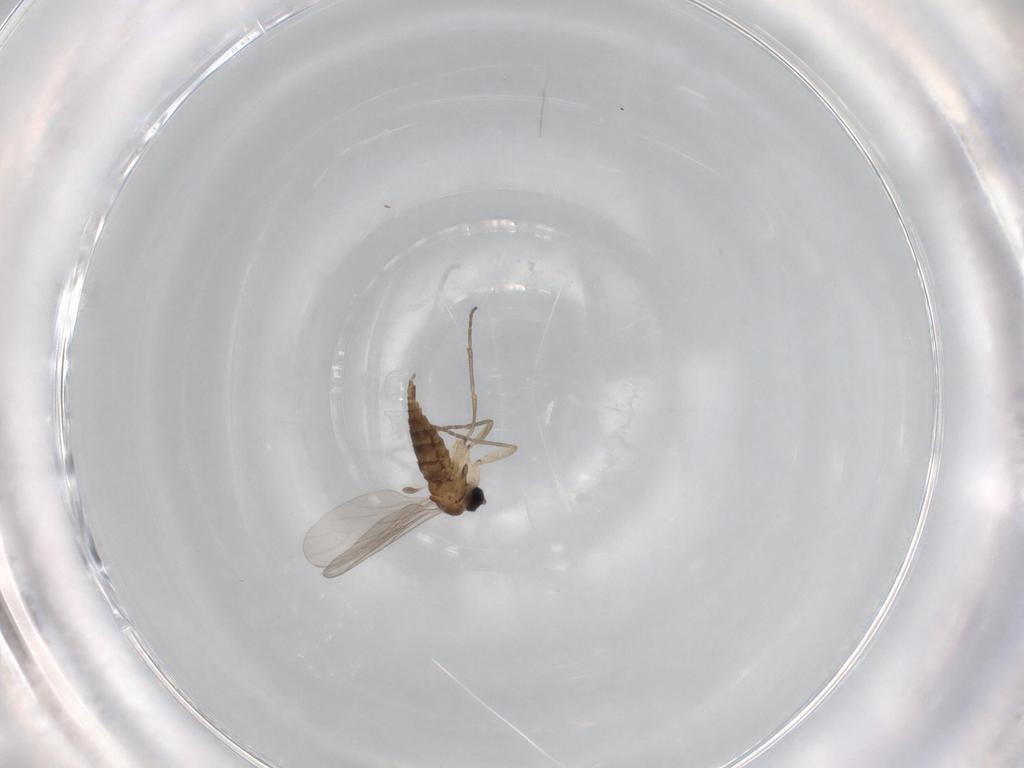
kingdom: Animalia
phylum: Arthropoda
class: Insecta
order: Diptera
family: Sciaridae
